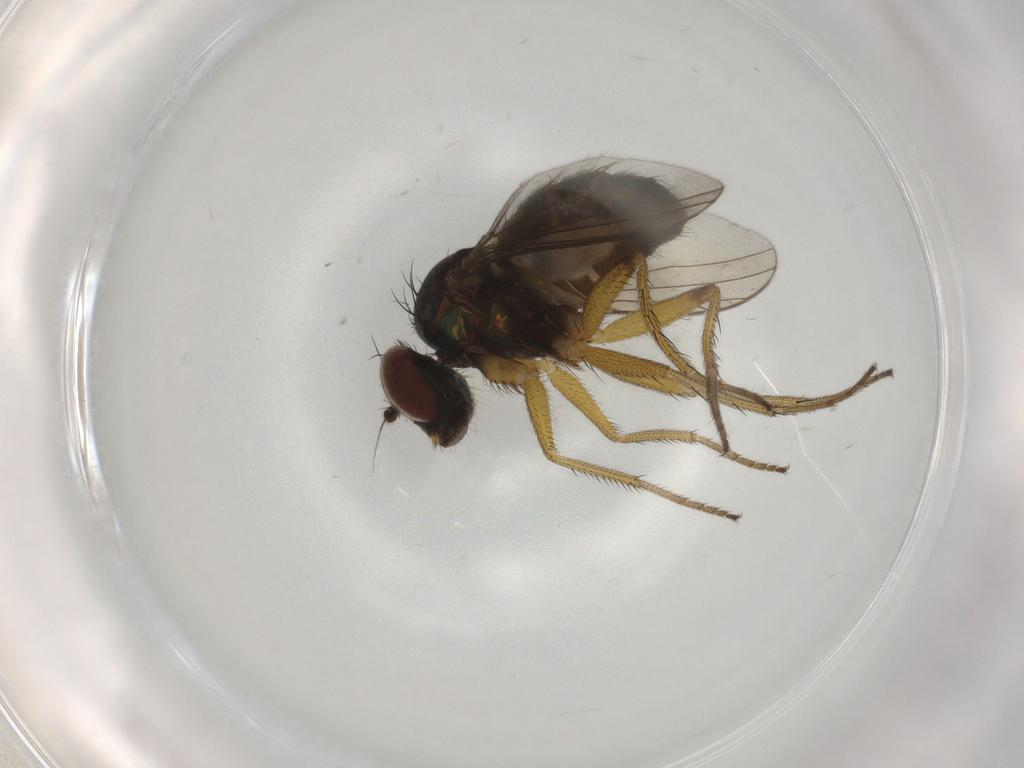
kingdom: Animalia
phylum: Arthropoda
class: Insecta
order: Diptera
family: Dolichopodidae
